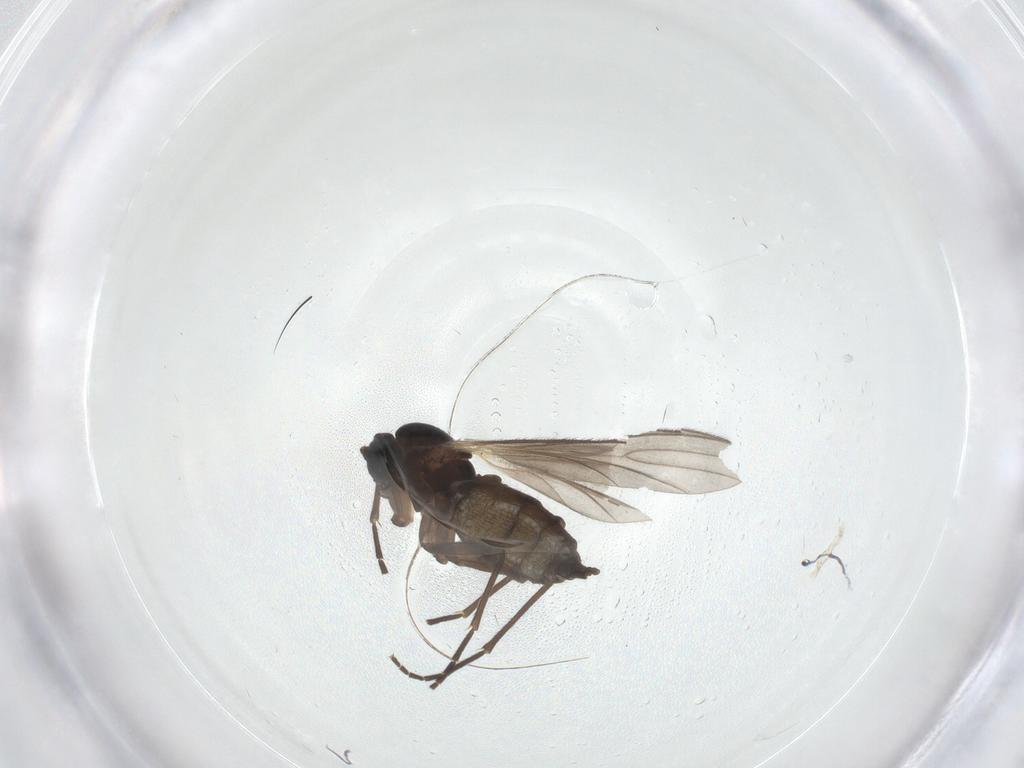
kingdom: Animalia
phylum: Arthropoda
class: Insecta
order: Diptera
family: Sciaridae
